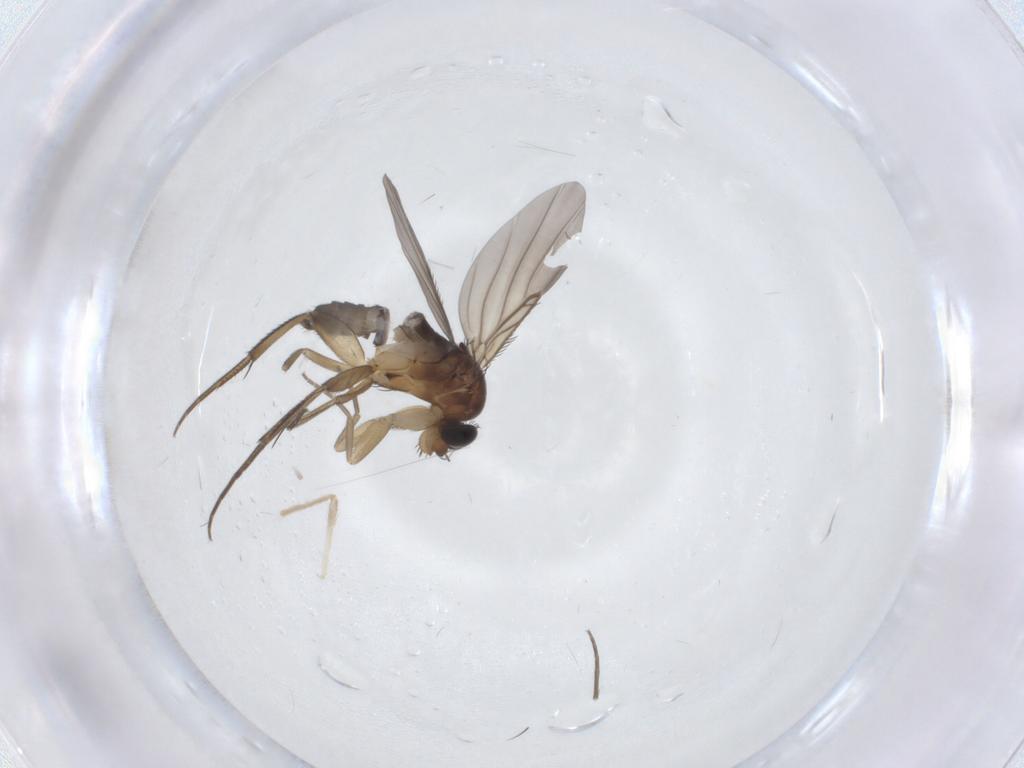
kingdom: Animalia
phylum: Arthropoda
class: Insecta
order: Diptera
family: Phoridae
